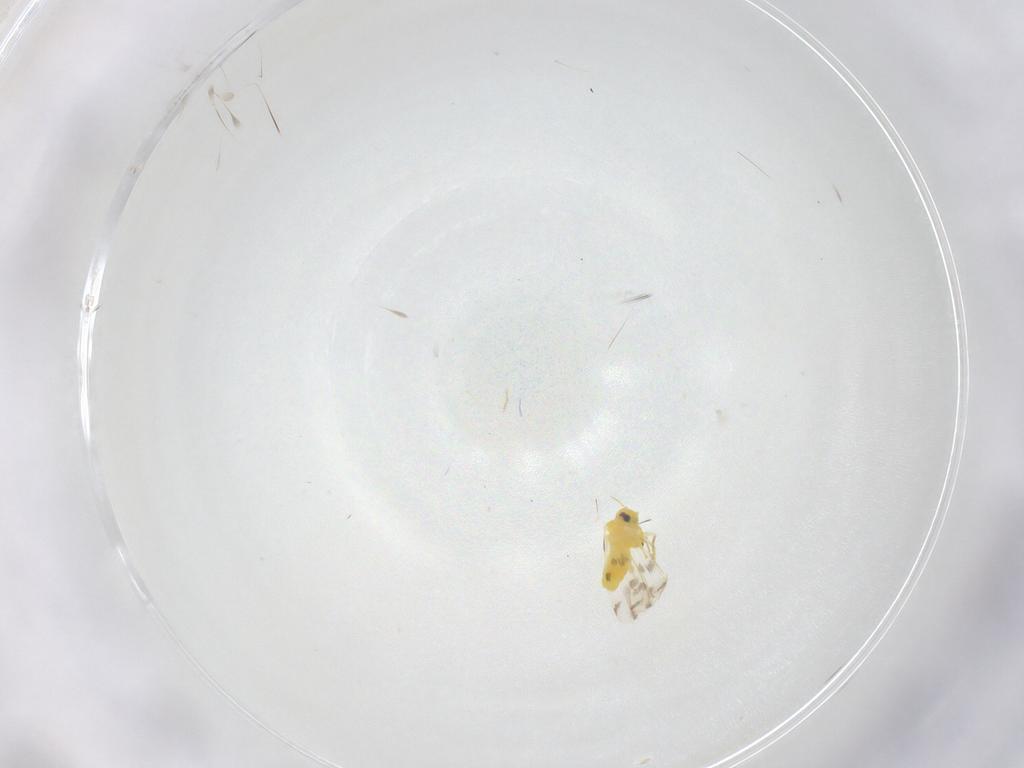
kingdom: Animalia
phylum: Arthropoda
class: Insecta
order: Hemiptera
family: Aleyrodidae
